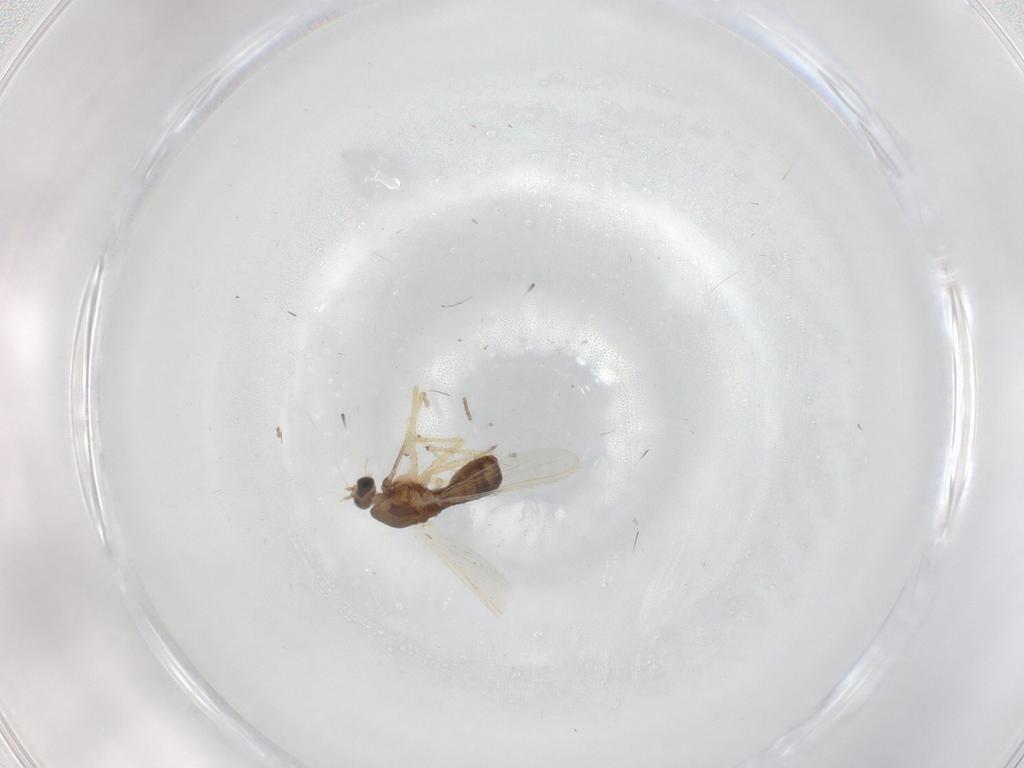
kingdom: Animalia
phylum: Arthropoda
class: Insecta
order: Diptera
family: Chironomidae
